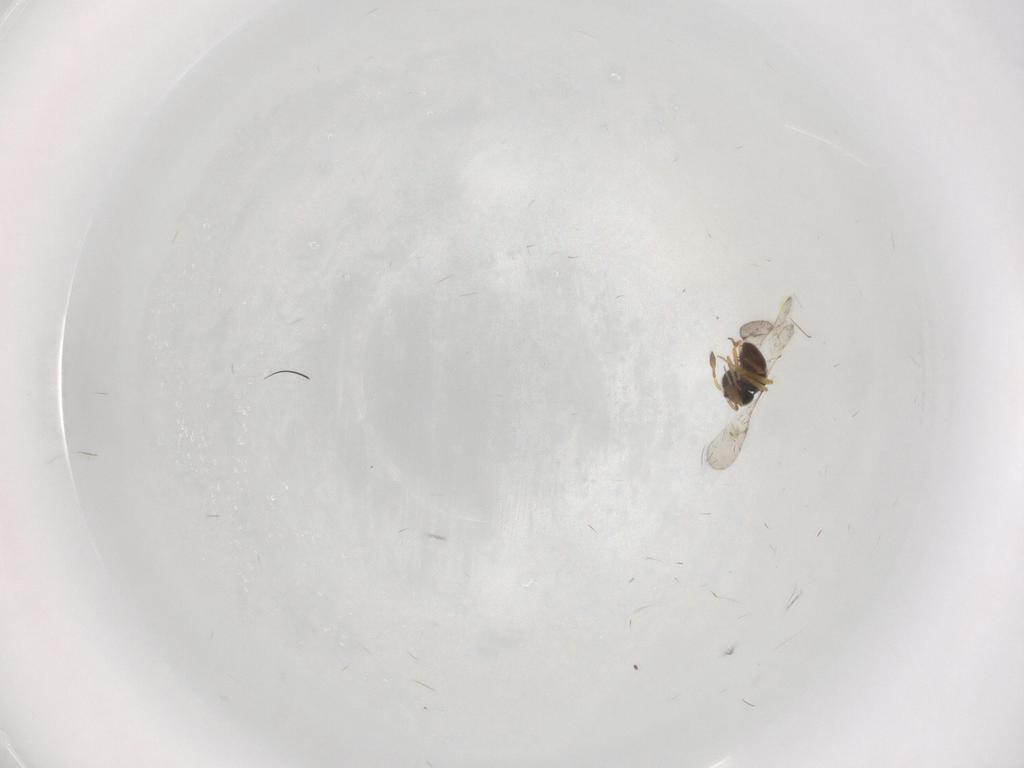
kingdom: Animalia
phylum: Arthropoda
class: Insecta
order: Hymenoptera
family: Scelionidae
